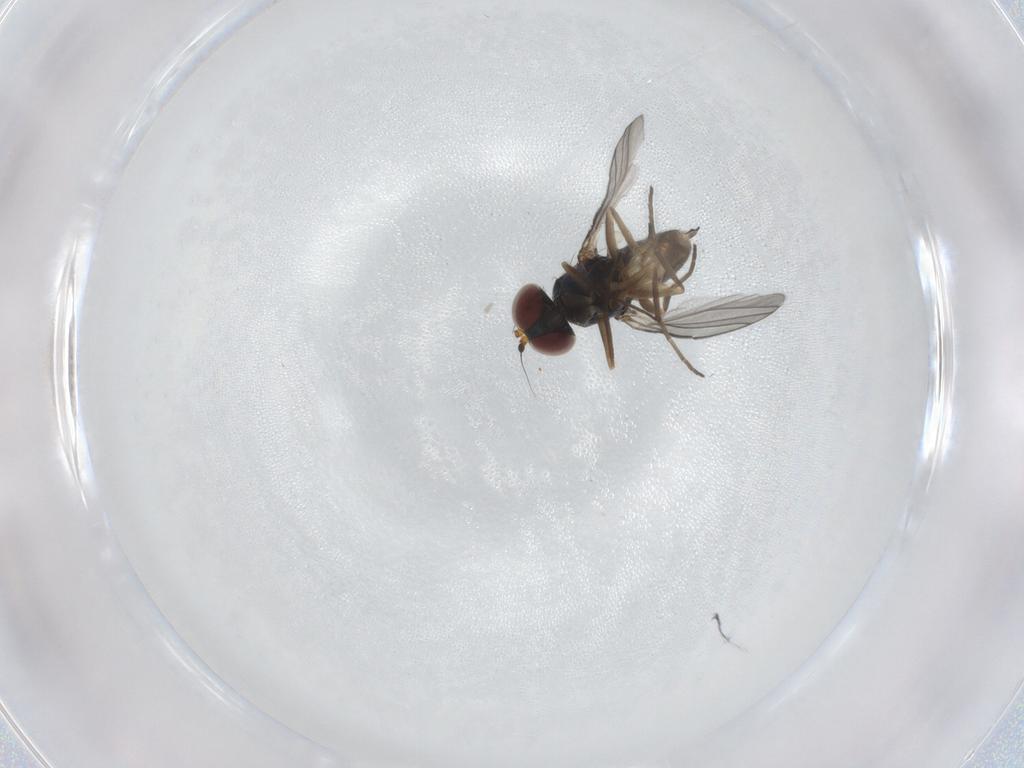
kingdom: Animalia
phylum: Arthropoda
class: Insecta
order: Diptera
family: Dolichopodidae
